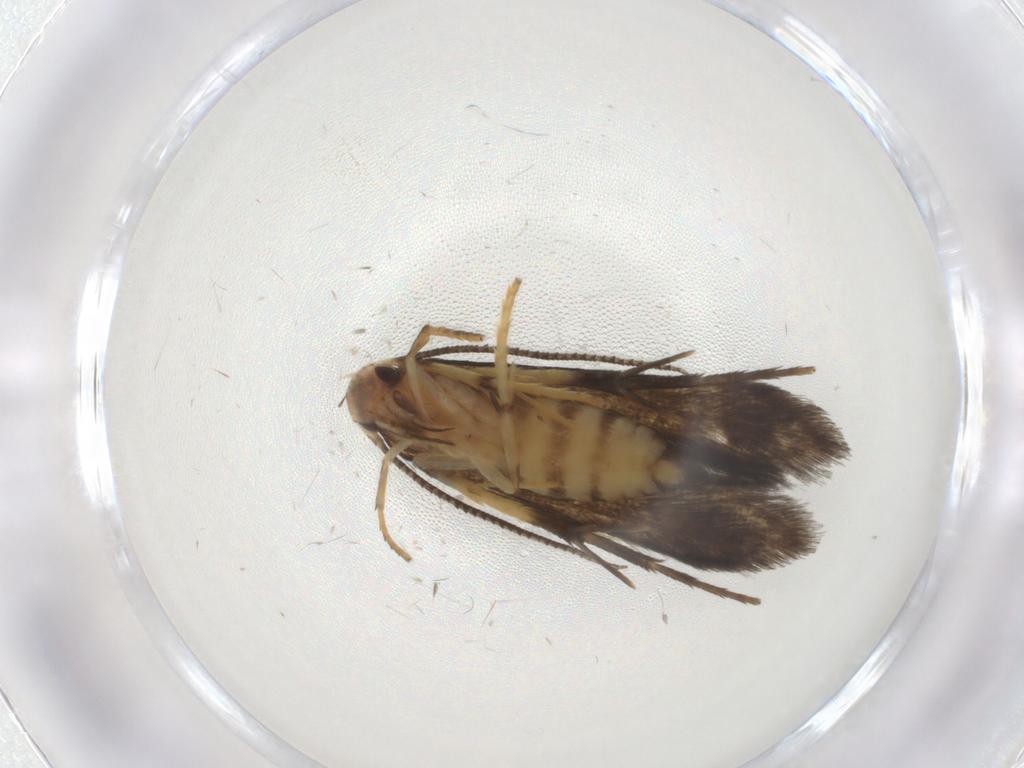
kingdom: Animalia
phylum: Arthropoda
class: Insecta
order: Lepidoptera
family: Stathmopodidae
